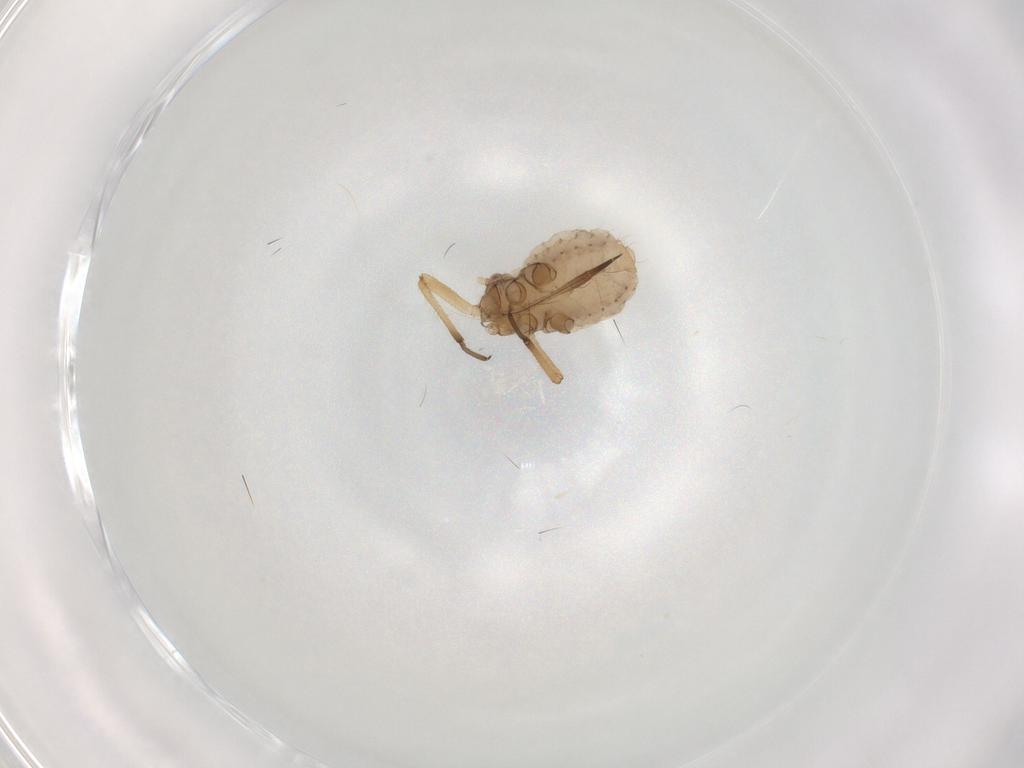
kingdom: Animalia
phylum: Arthropoda
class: Insecta
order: Hemiptera
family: Aphididae
